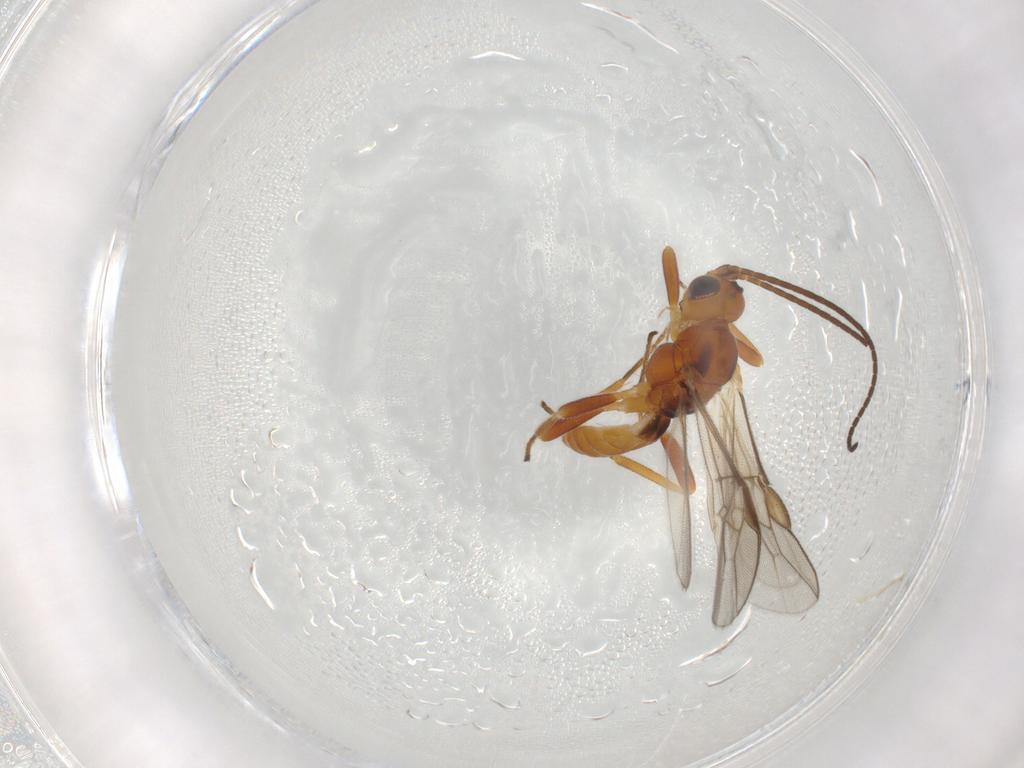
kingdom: Animalia
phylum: Arthropoda
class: Insecta
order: Hymenoptera
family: Braconidae
